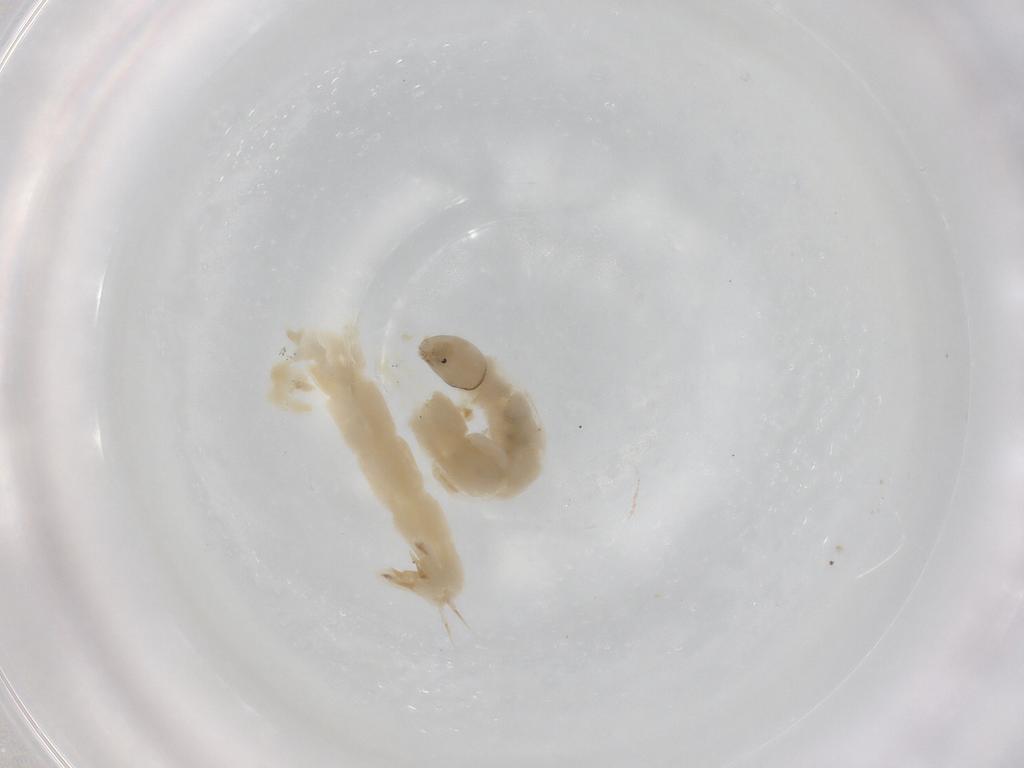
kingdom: Animalia
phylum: Arthropoda
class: Insecta
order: Diptera
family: Chironomidae
